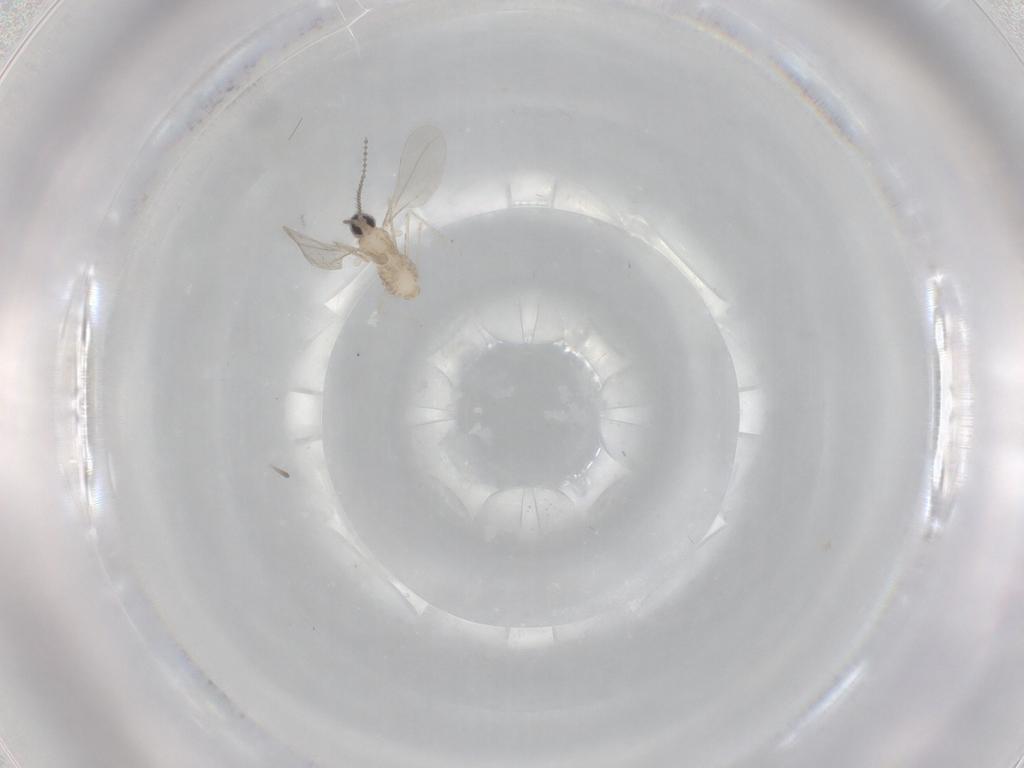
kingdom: Animalia
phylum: Arthropoda
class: Insecta
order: Diptera
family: Cecidomyiidae
